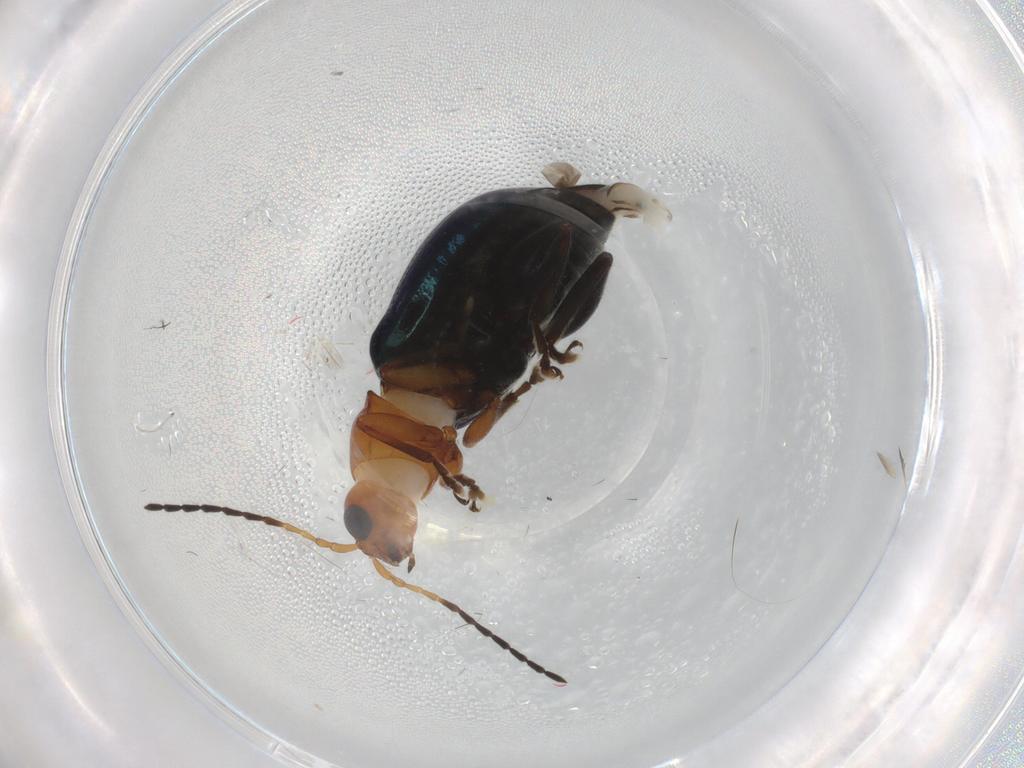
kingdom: Animalia
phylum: Arthropoda
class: Insecta
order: Coleoptera
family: Chrysomelidae
